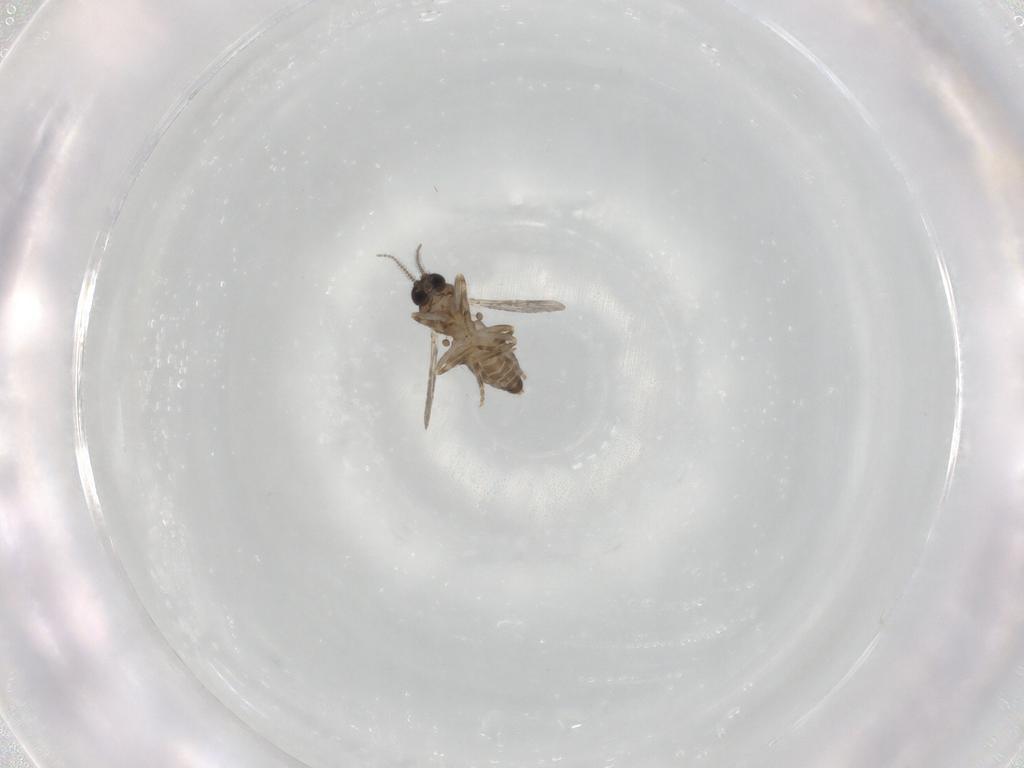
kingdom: Animalia
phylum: Arthropoda
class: Insecta
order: Diptera
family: Ceratopogonidae
